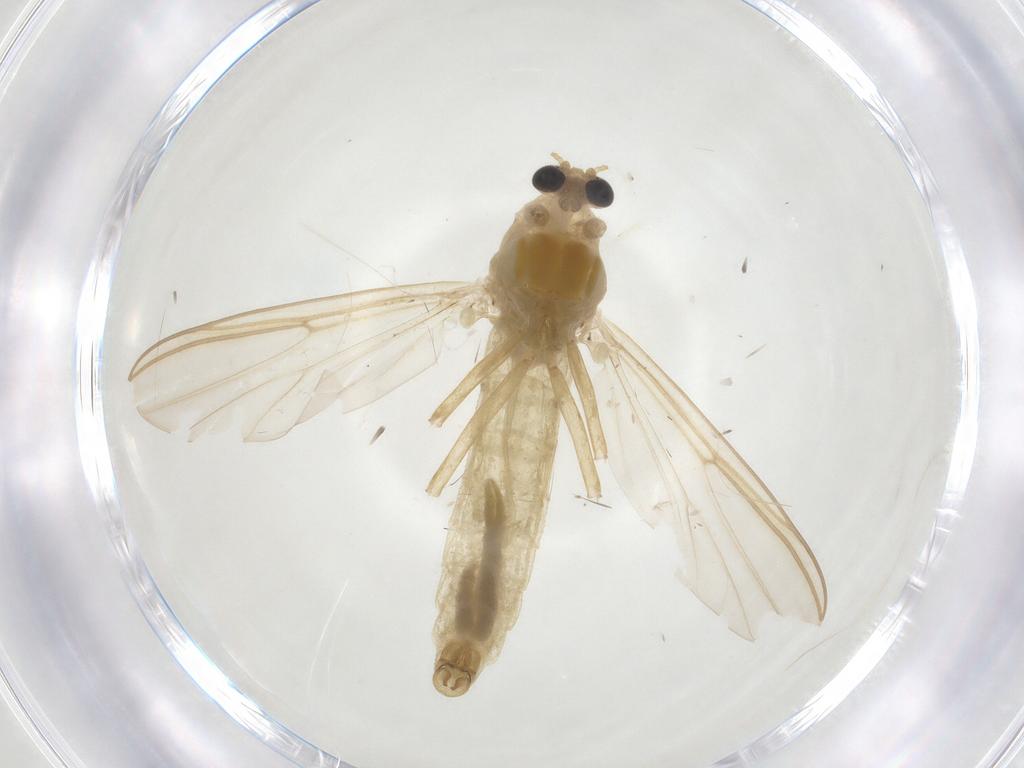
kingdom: Animalia
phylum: Arthropoda
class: Insecta
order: Diptera
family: Chironomidae
